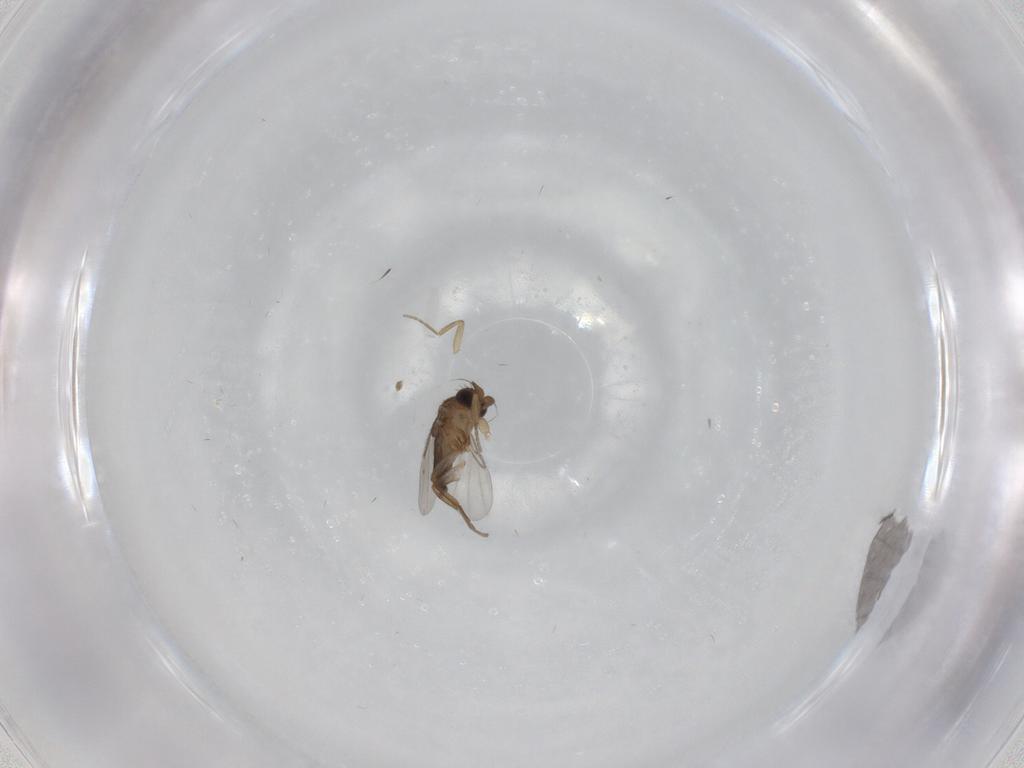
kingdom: Animalia
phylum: Arthropoda
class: Insecta
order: Diptera
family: Phoridae
